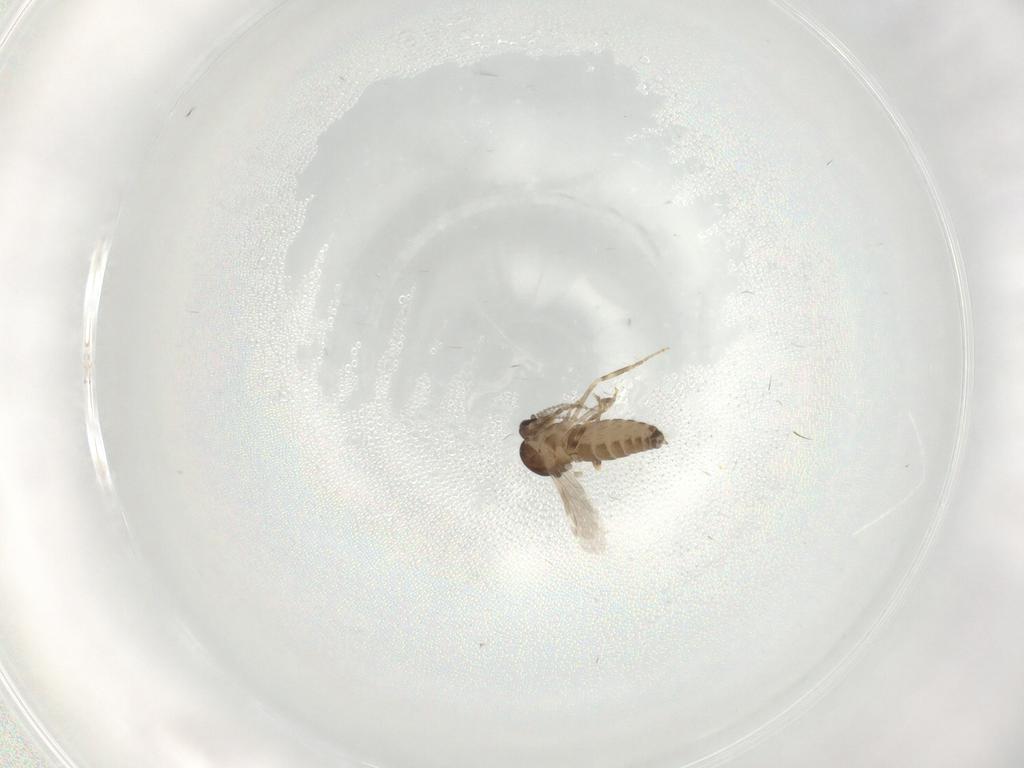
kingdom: Animalia
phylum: Arthropoda
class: Insecta
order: Diptera
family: Ceratopogonidae
